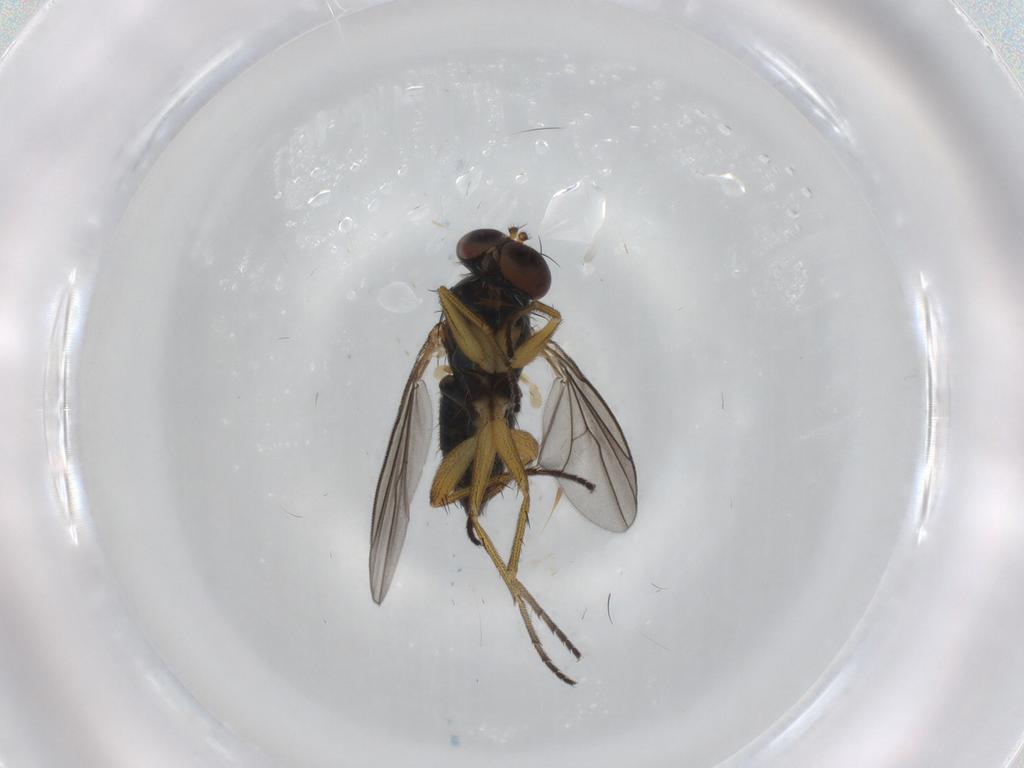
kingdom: Animalia
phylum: Arthropoda
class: Insecta
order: Diptera
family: Dolichopodidae
